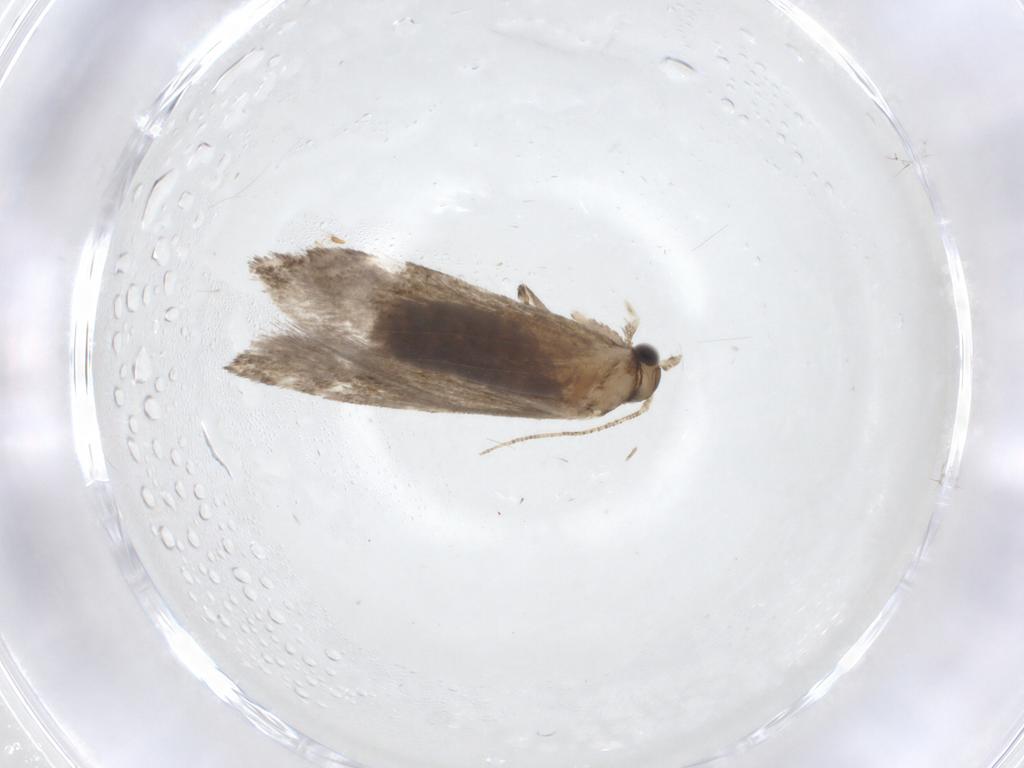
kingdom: Animalia
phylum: Arthropoda
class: Insecta
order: Lepidoptera
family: Tineidae
